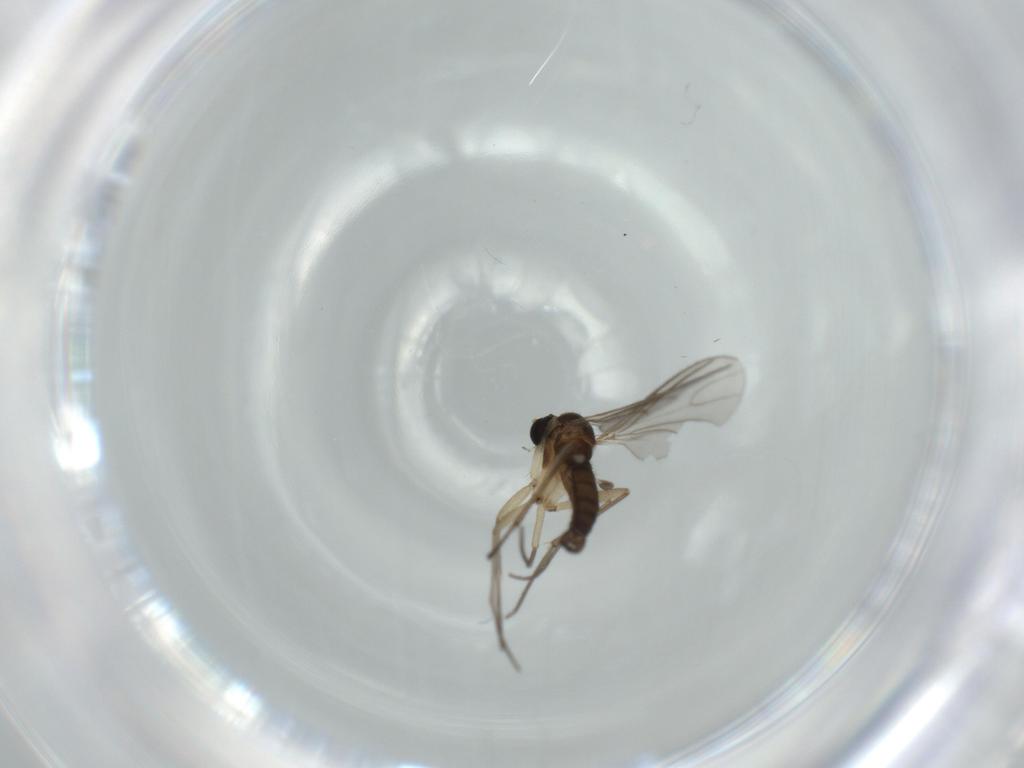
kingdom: Animalia
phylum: Arthropoda
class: Insecta
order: Diptera
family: Sciaridae
